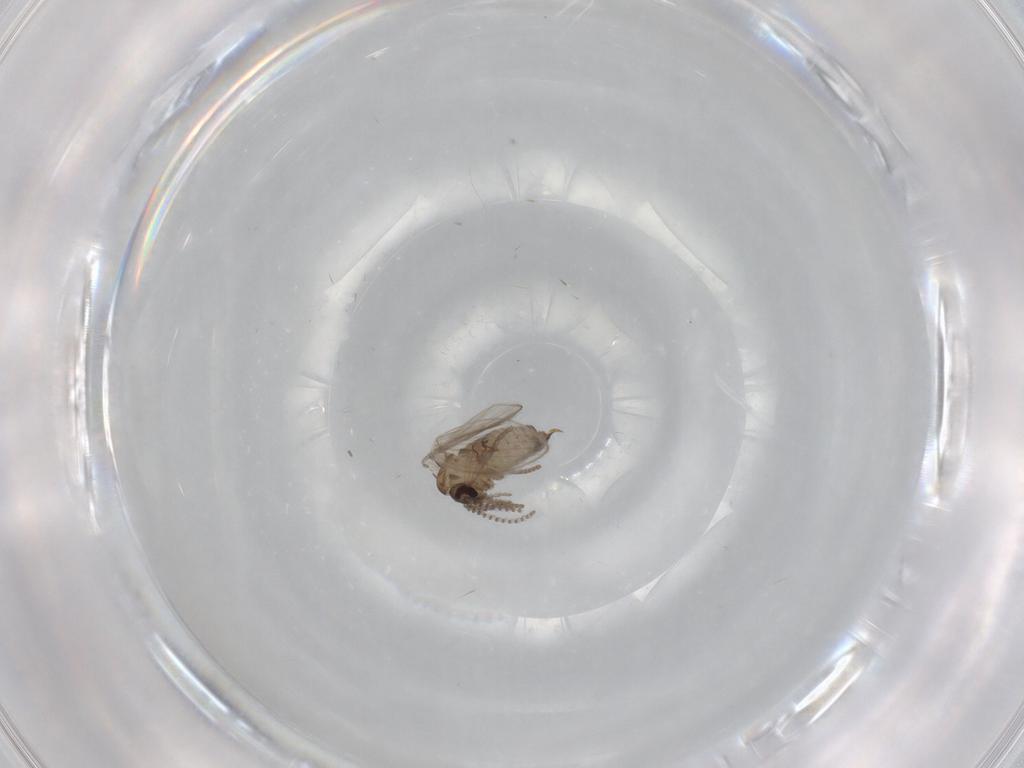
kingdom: Animalia
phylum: Arthropoda
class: Insecta
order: Diptera
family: Psychodidae
